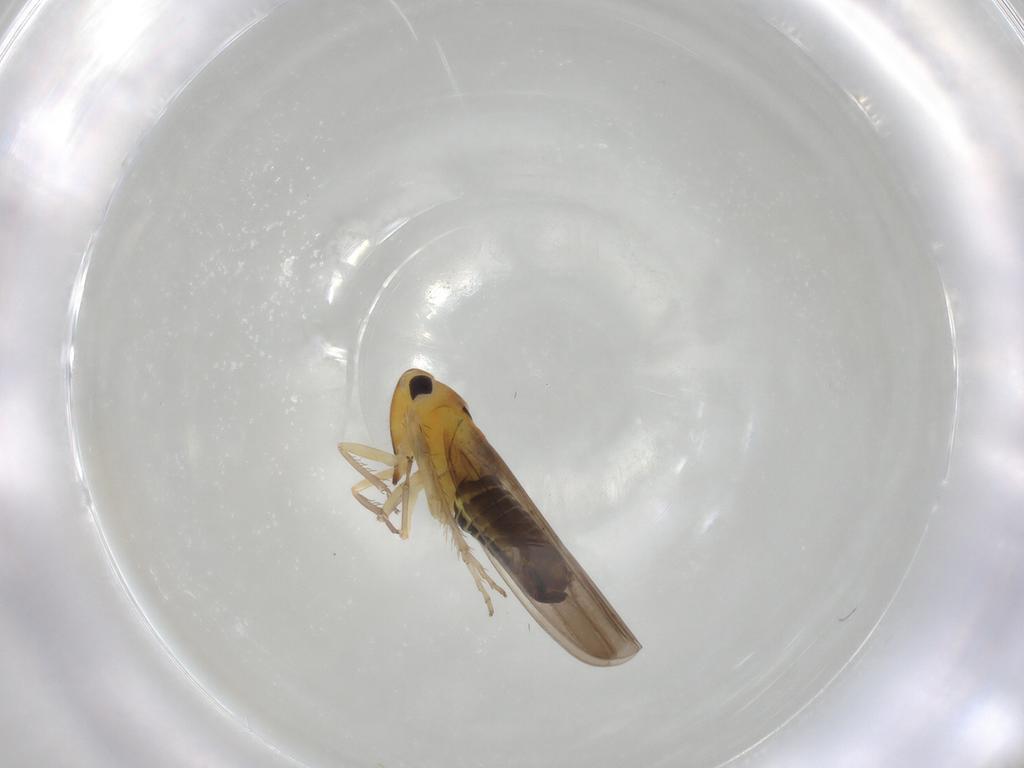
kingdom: Animalia
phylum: Arthropoda
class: Insecta
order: Hemiptera
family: Cicadellidae
